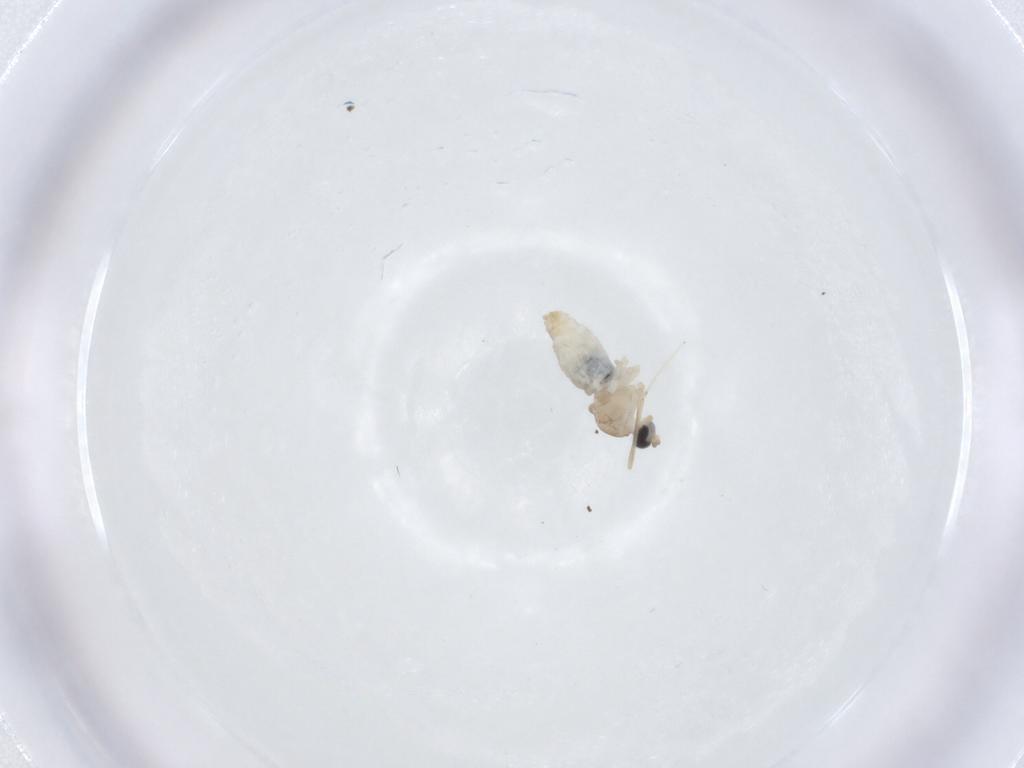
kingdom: Animalia
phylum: Arthropoda
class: Insecta
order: Diptera
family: Cecidomyiidae
